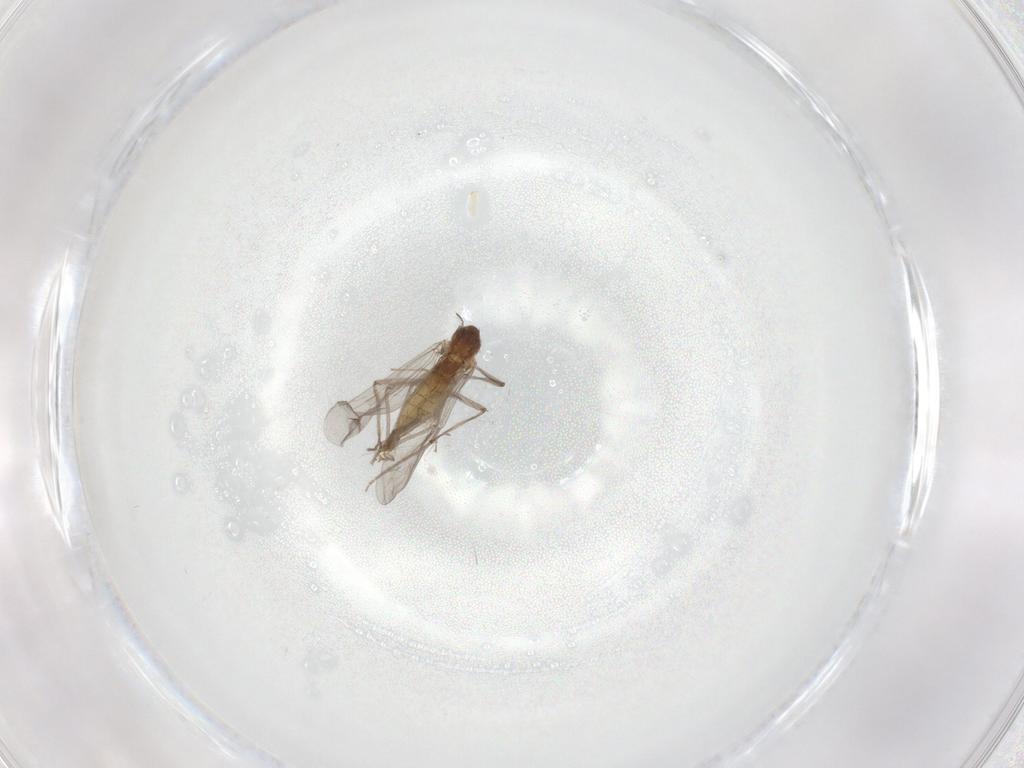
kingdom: Animalia
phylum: Arthropoda
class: Insecta
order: Diptera
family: Chironomidae
